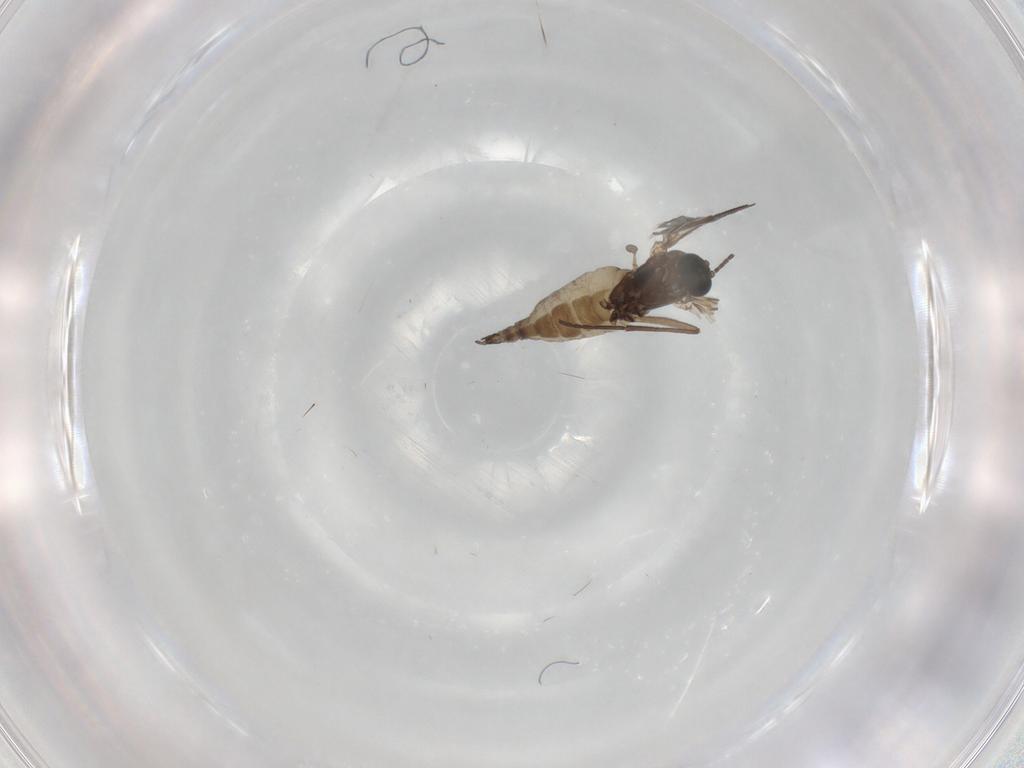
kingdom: Animalia
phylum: Arthropoda
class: Insecta
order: Diptera
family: Sciaridae
